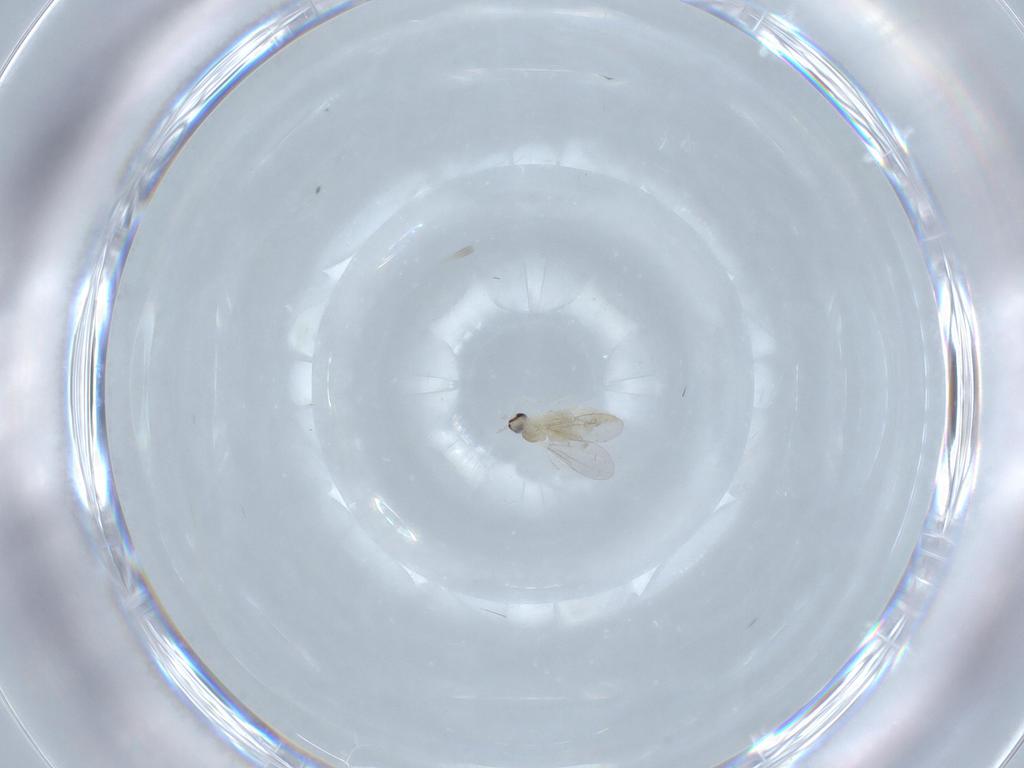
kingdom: Animalia
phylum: Arthropoda
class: Insecta
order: Diptera
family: Cecidomyiidae
